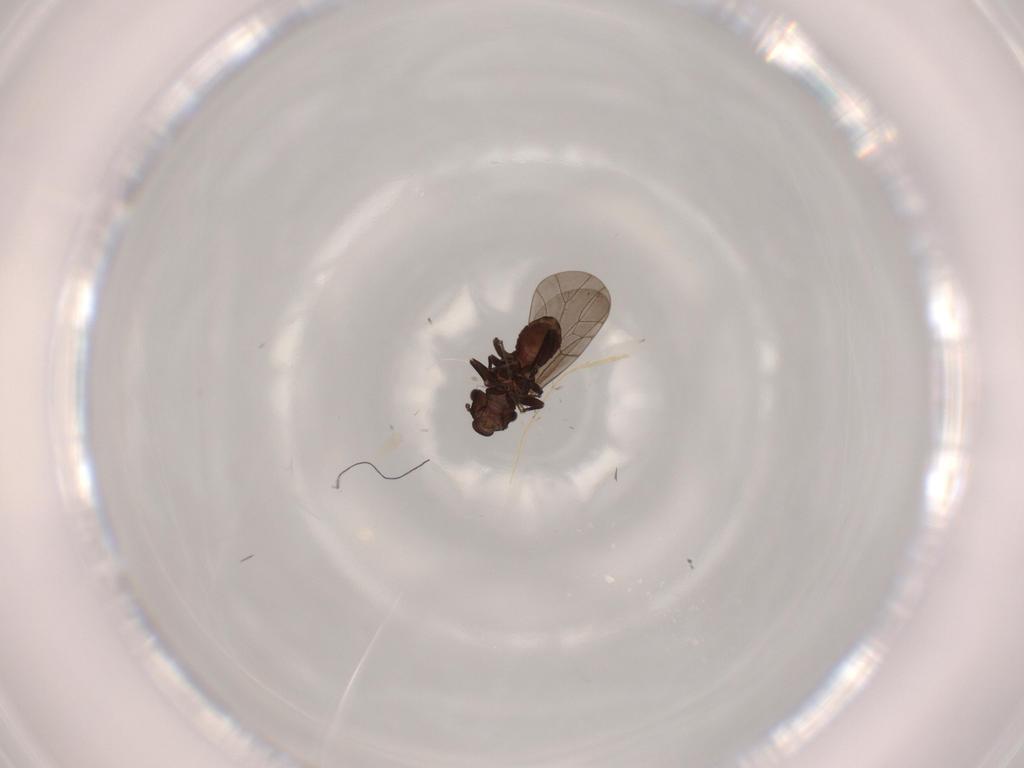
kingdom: Animalia
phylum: Arthropoda
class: Insecta
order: Psocodea
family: Lepidopsocidae
